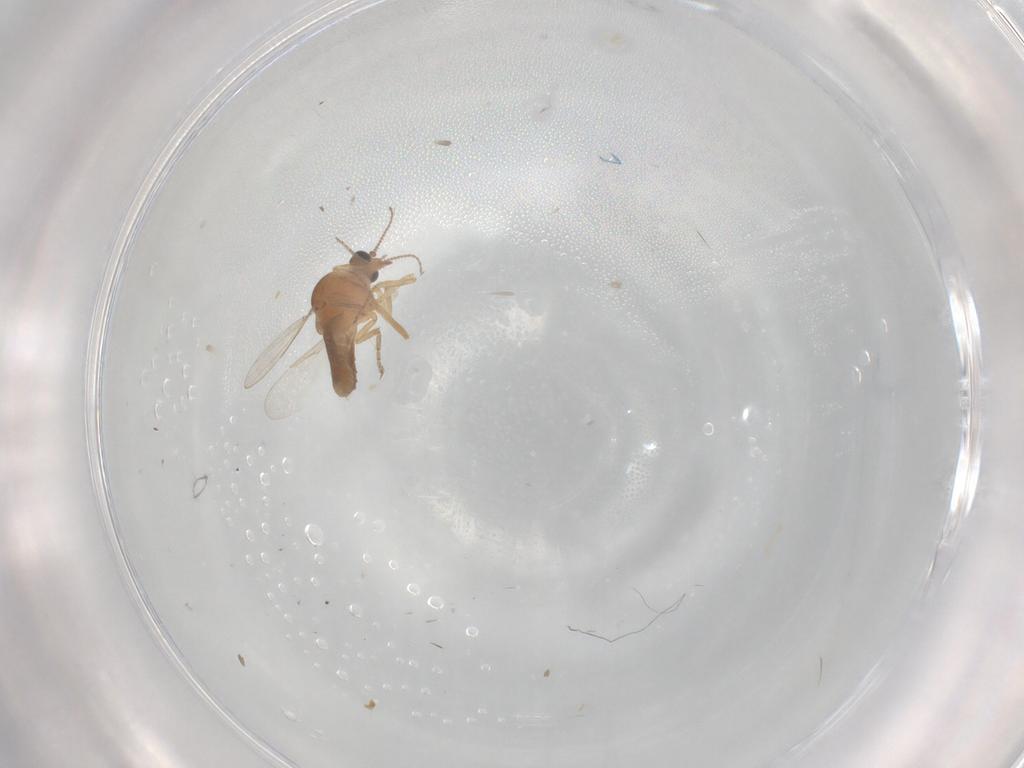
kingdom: Animalia
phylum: Arthropoda
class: Insecta
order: Diptera
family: Ceratopogonidae
